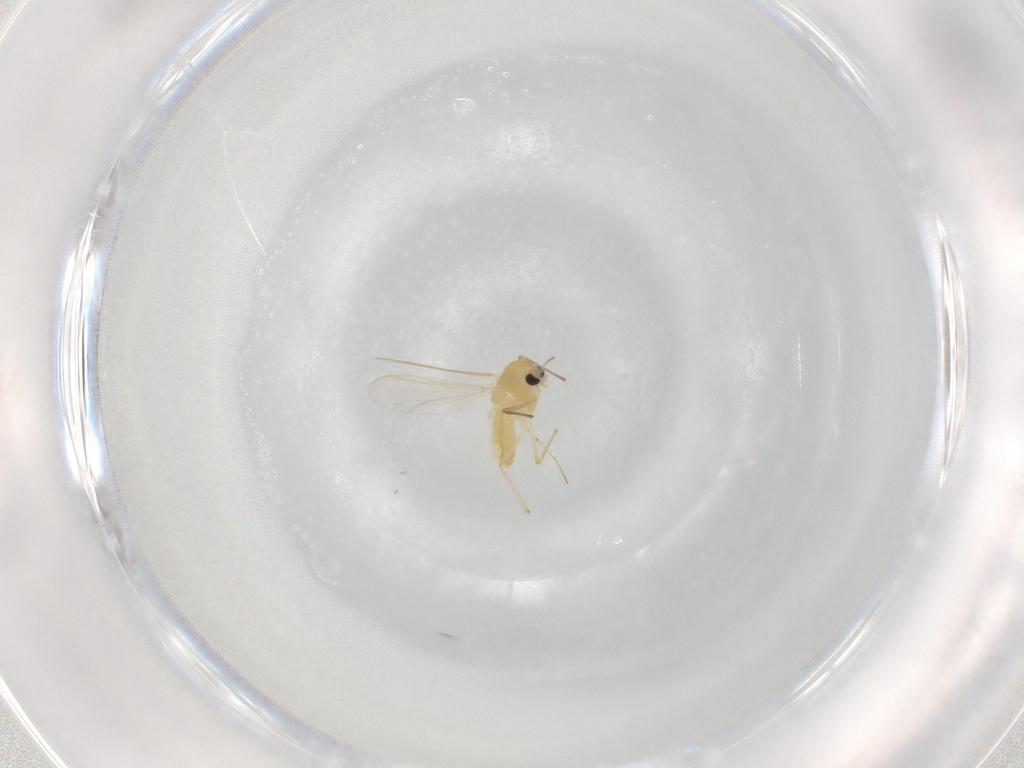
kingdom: Animalia
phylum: Arthropoda
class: Insecta
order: Diptera
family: Chironomidae
